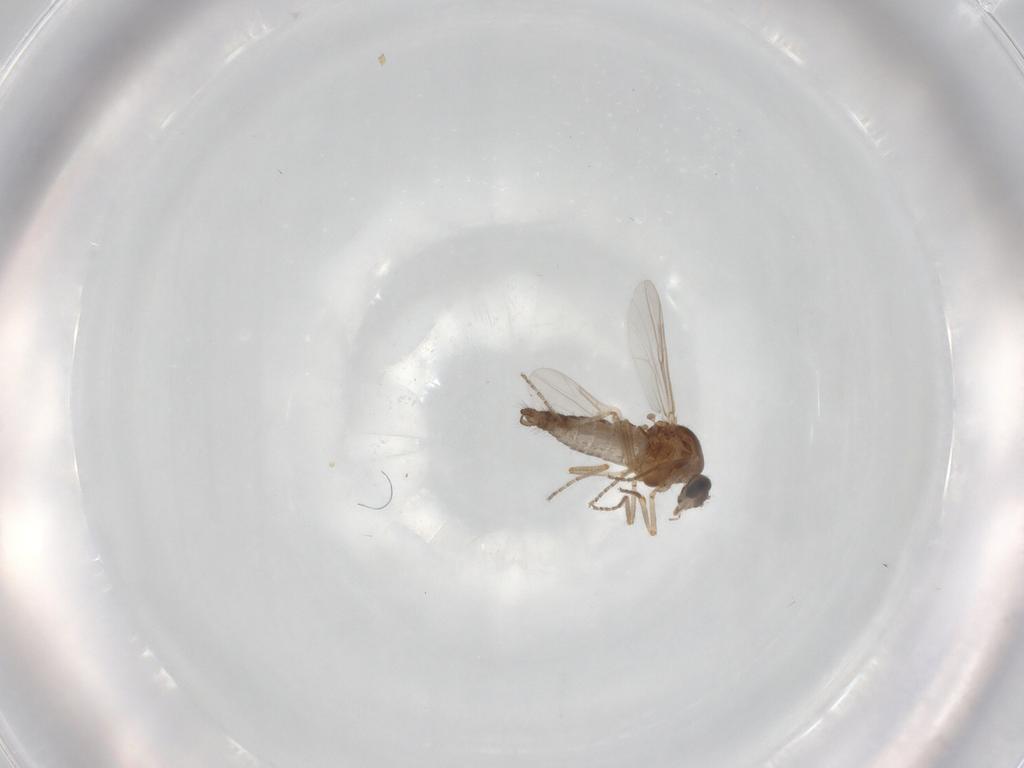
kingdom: Animalia
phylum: Arthropoda
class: Insecta
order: Diptera
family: Ceratopogonidae
